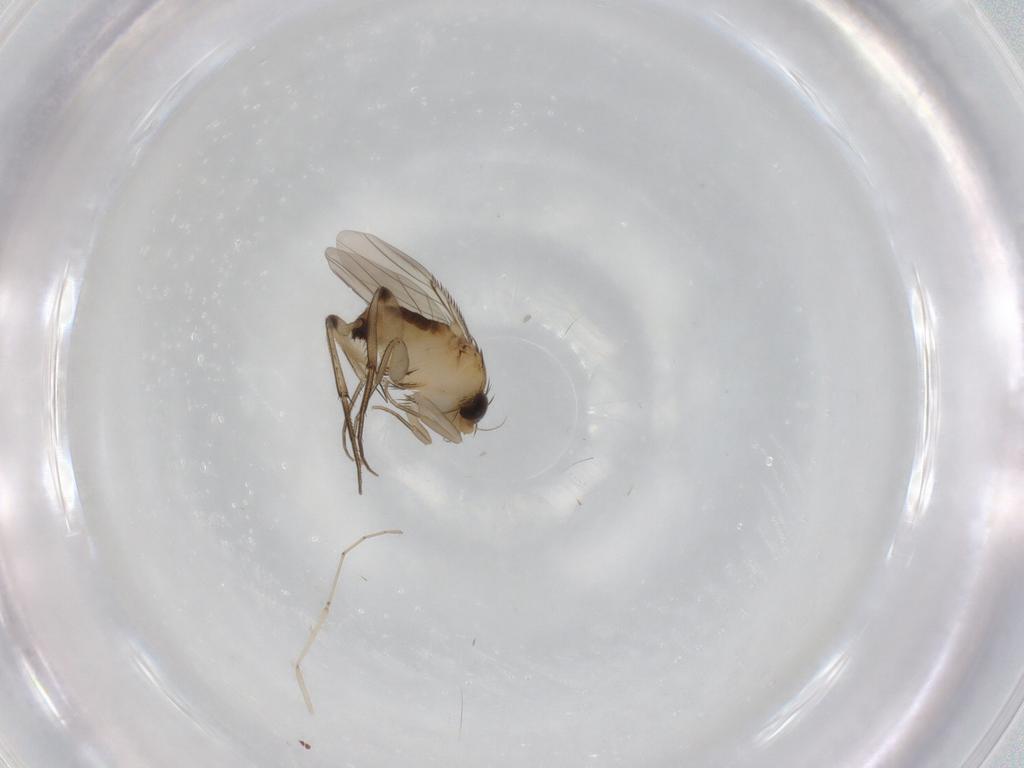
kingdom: Animalia
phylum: Arthropoda
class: Insecta
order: Diptera
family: Phoridae
